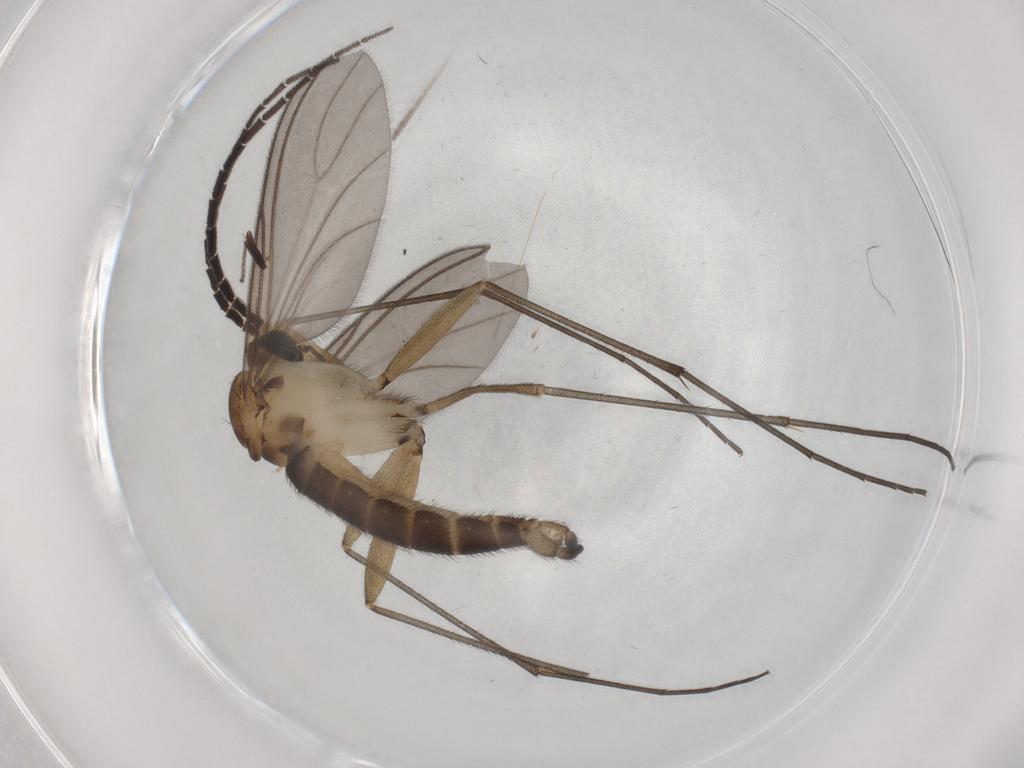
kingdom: Animalia
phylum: Arthropoda
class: Insecta
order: Diptera
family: Sciaridae
